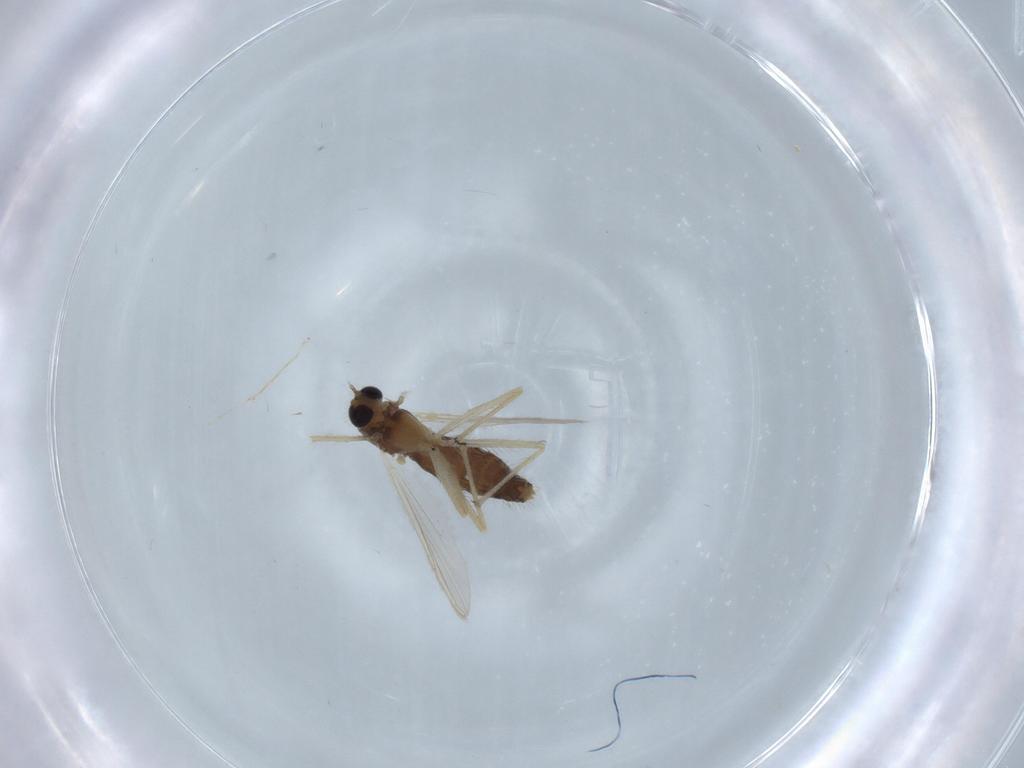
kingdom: Animalia
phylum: Arthropoda
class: Insecta
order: Diptera
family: Chironomidae
